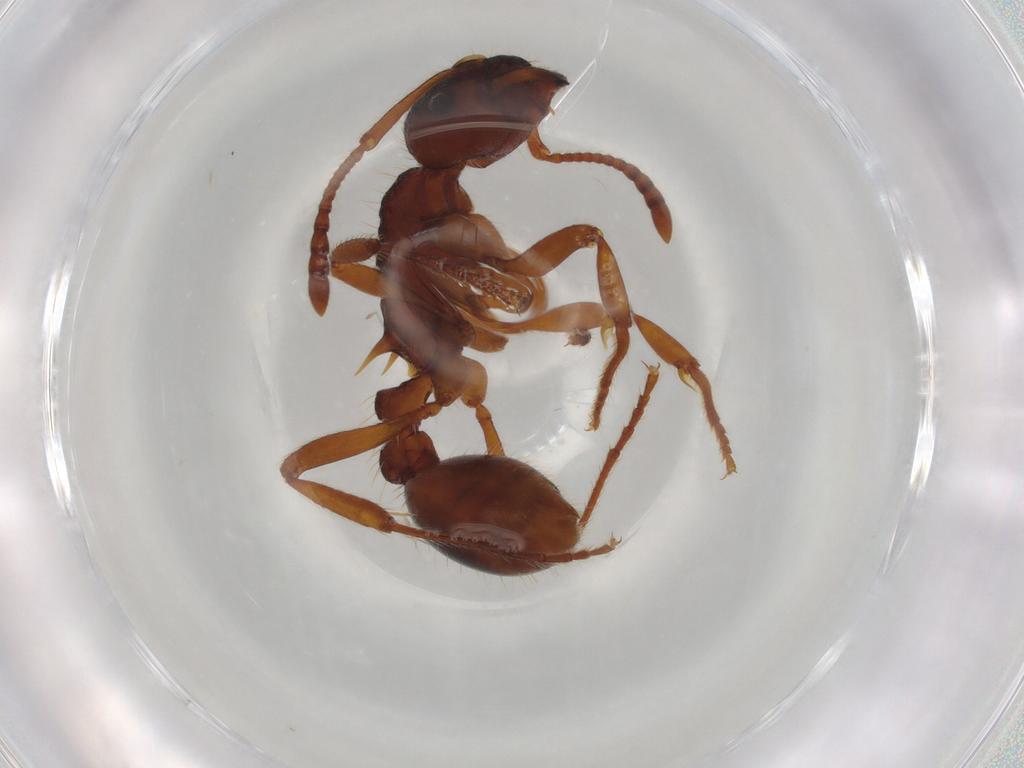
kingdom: Animalia
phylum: Arthropoda
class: Insecta
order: Hymenoptera
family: Formicidae
